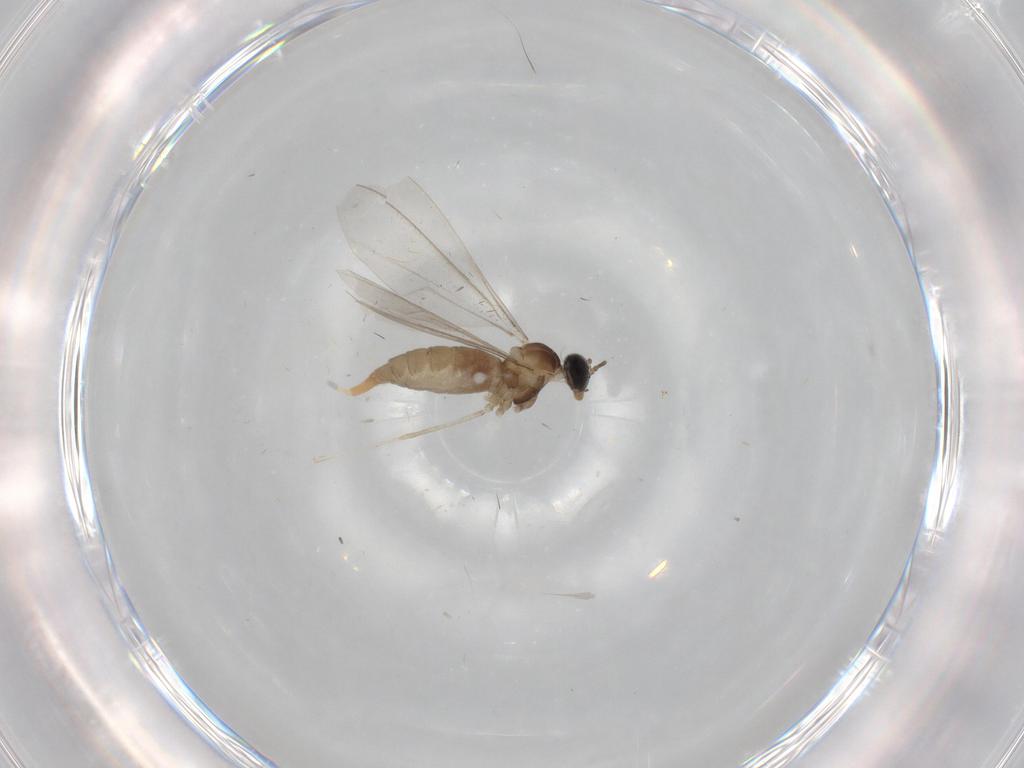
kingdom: Animalia
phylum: Arthropoda
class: Insecta
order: Diptera
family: Cecidomyiidae
